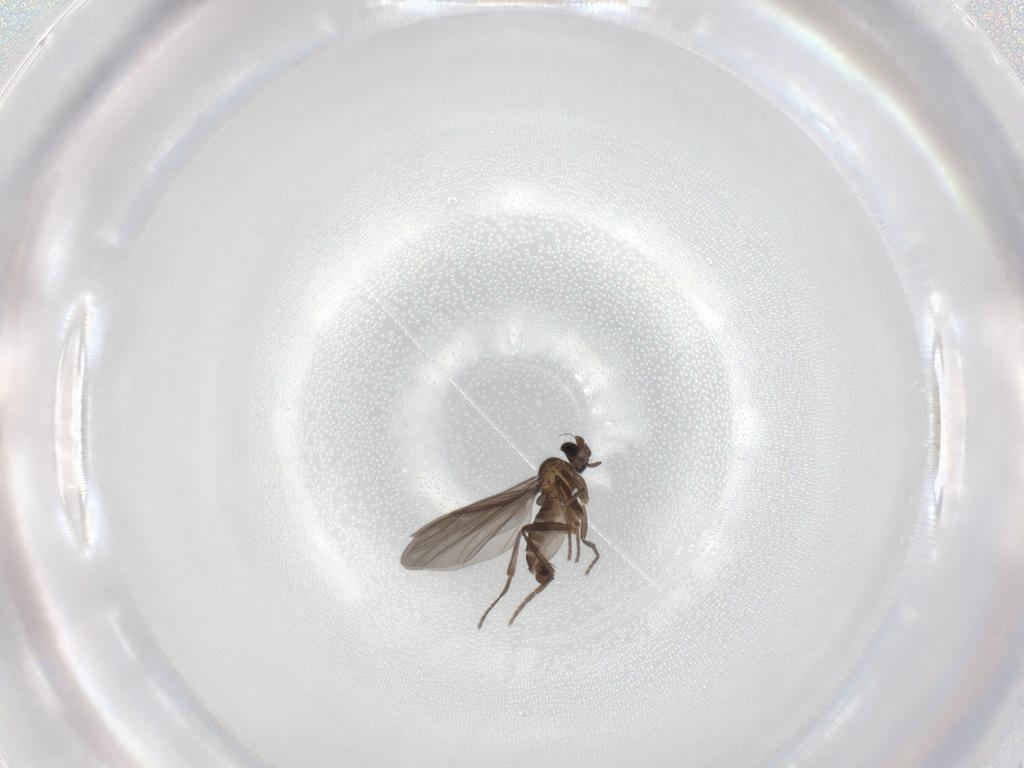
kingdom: Animalia
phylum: Arthropoda
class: Insecta
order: Diptera
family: Phoridae
